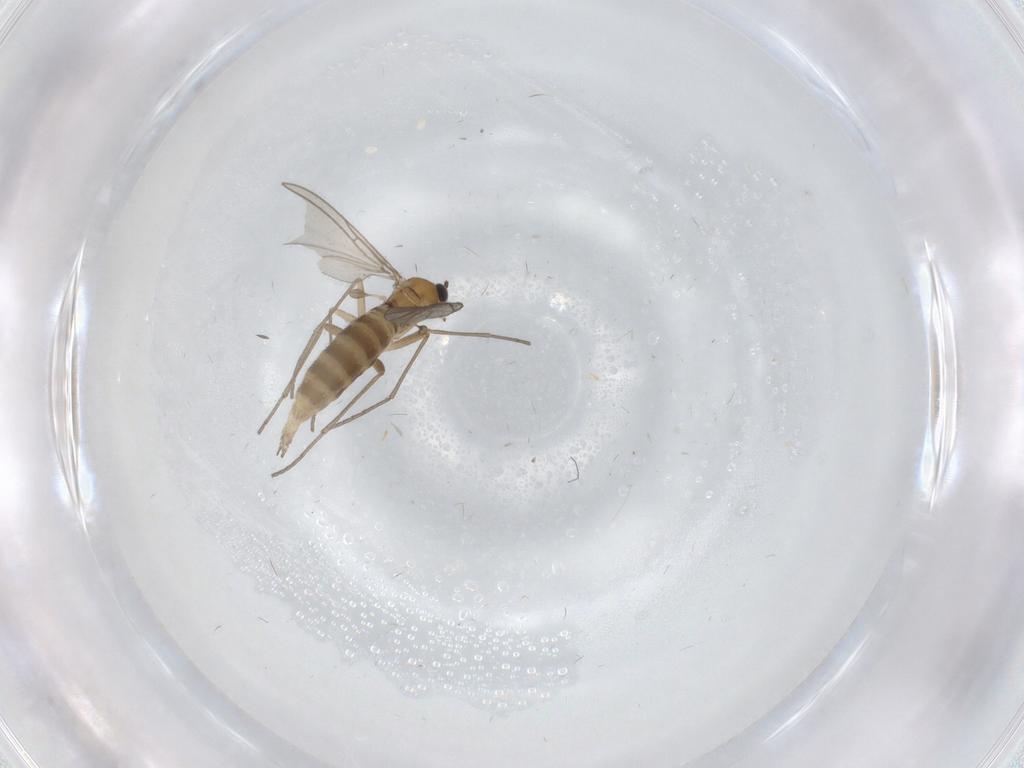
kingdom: Animalia
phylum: Arthropoda
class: Insecta
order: Diptera
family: Sciaridae
